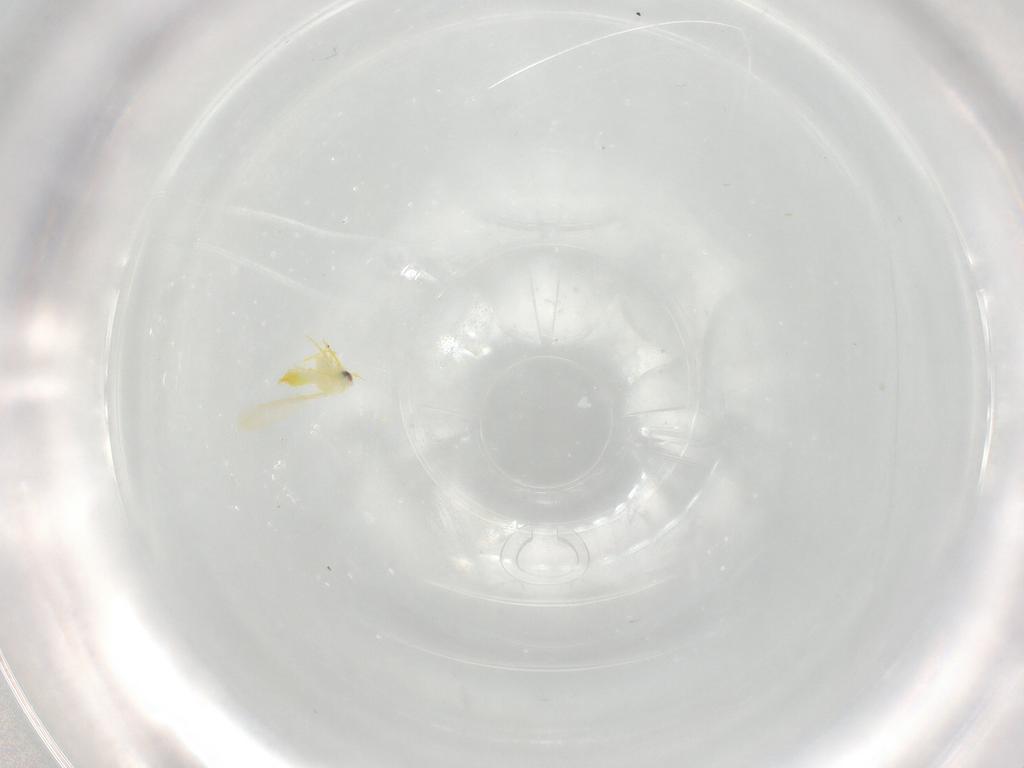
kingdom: Animalia
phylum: Arthropoda
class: Insecta
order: Hemiptera
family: Aleyrodidae
